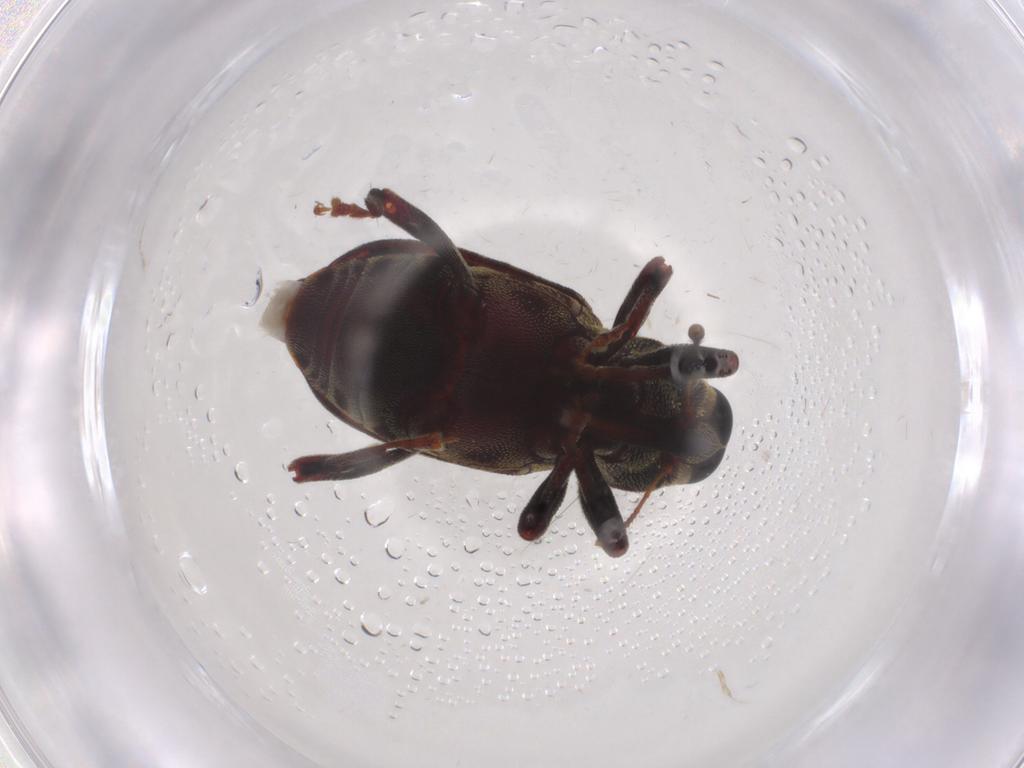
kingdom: Animalia
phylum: Arthropoda
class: Insecta
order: Coleoptera
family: Curculionidae
